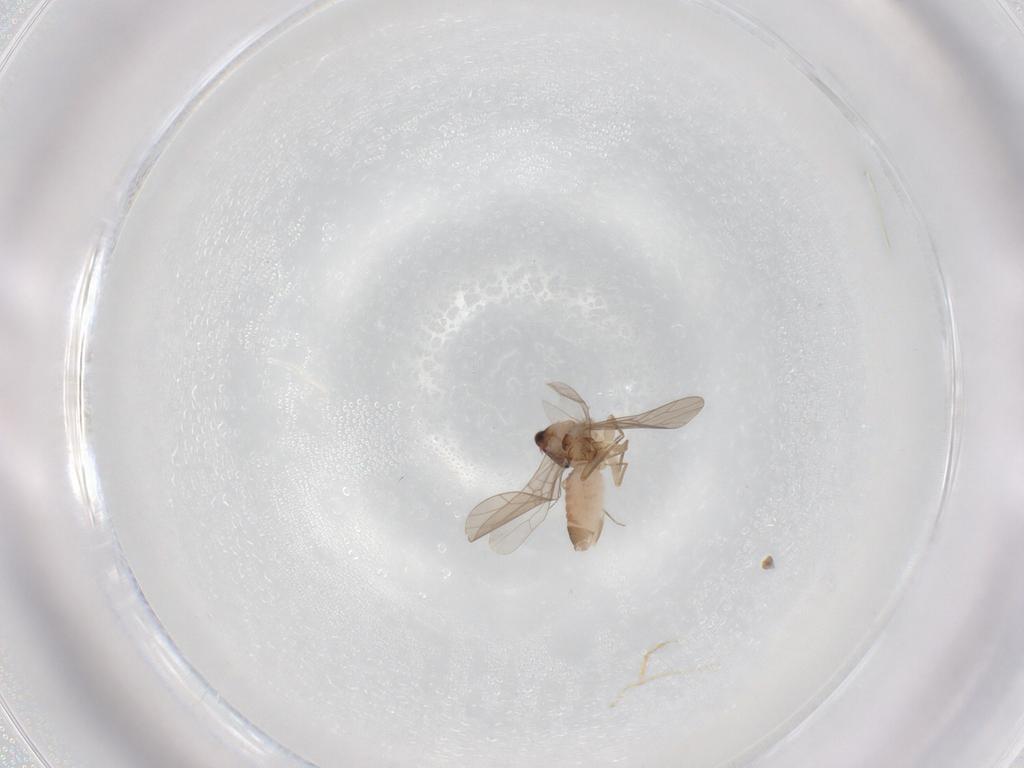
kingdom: Animalia
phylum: Arthropoda
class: Insecta
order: Psocodea
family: Lepidopsocidae
